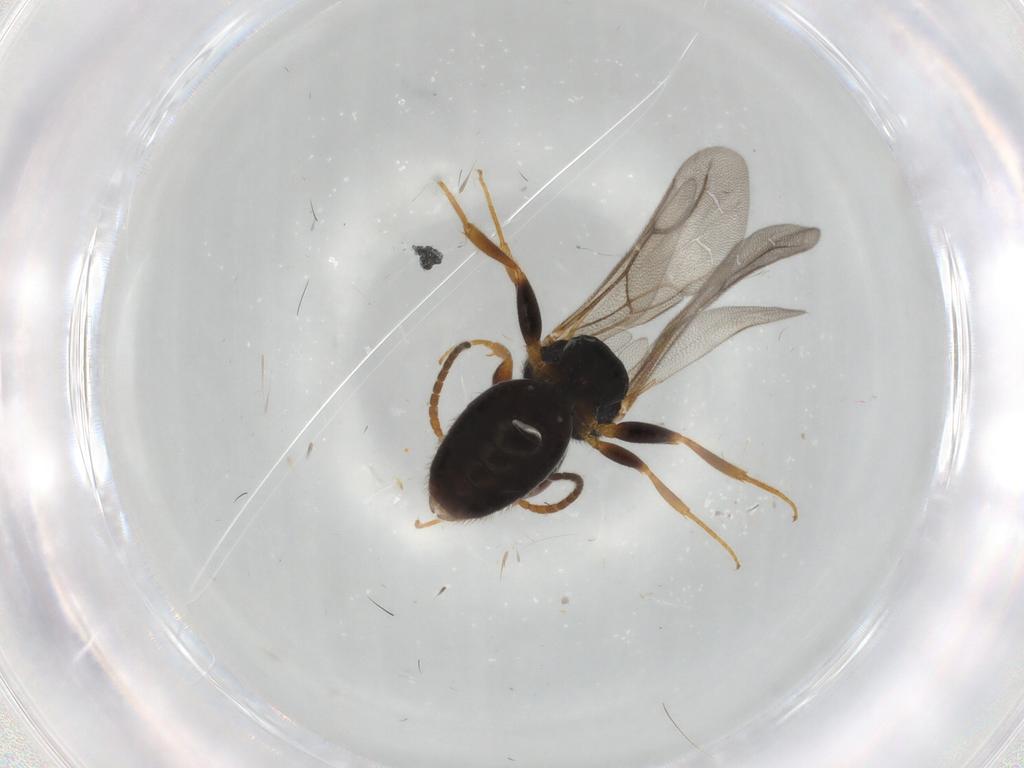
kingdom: Animalia
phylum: Arthropoda
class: Insecta
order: Hymenoptera
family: Bethylidae
